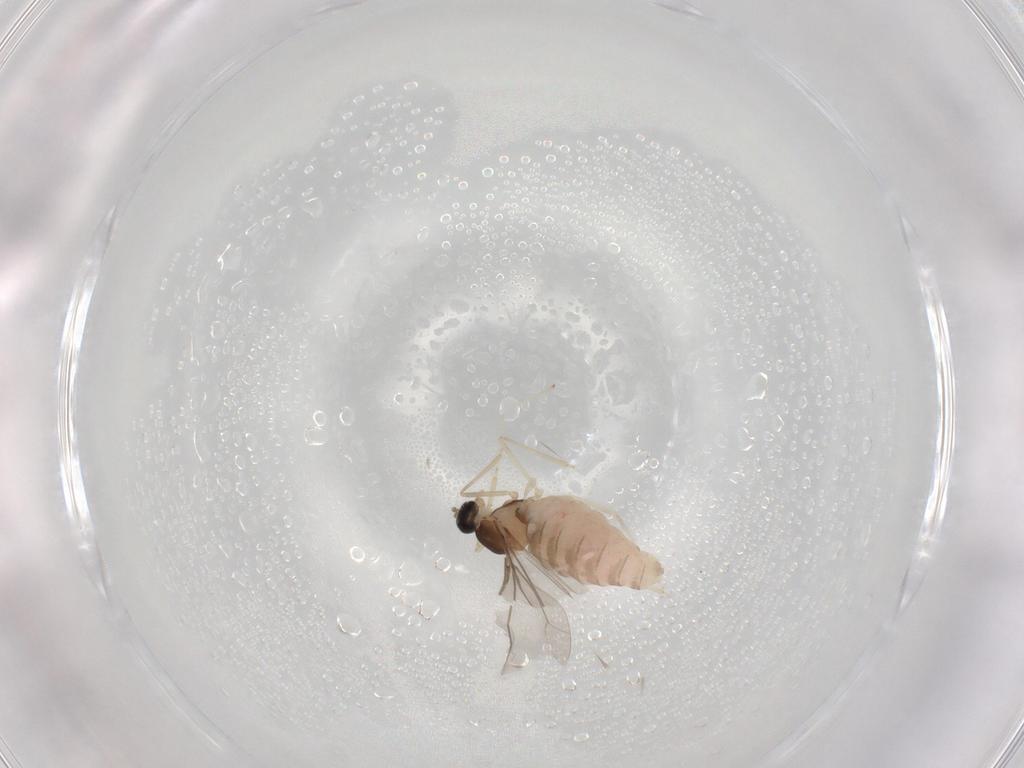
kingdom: Animalia
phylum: Arthropoda
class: Insecta
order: Diptera
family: Cecidomyiidae
